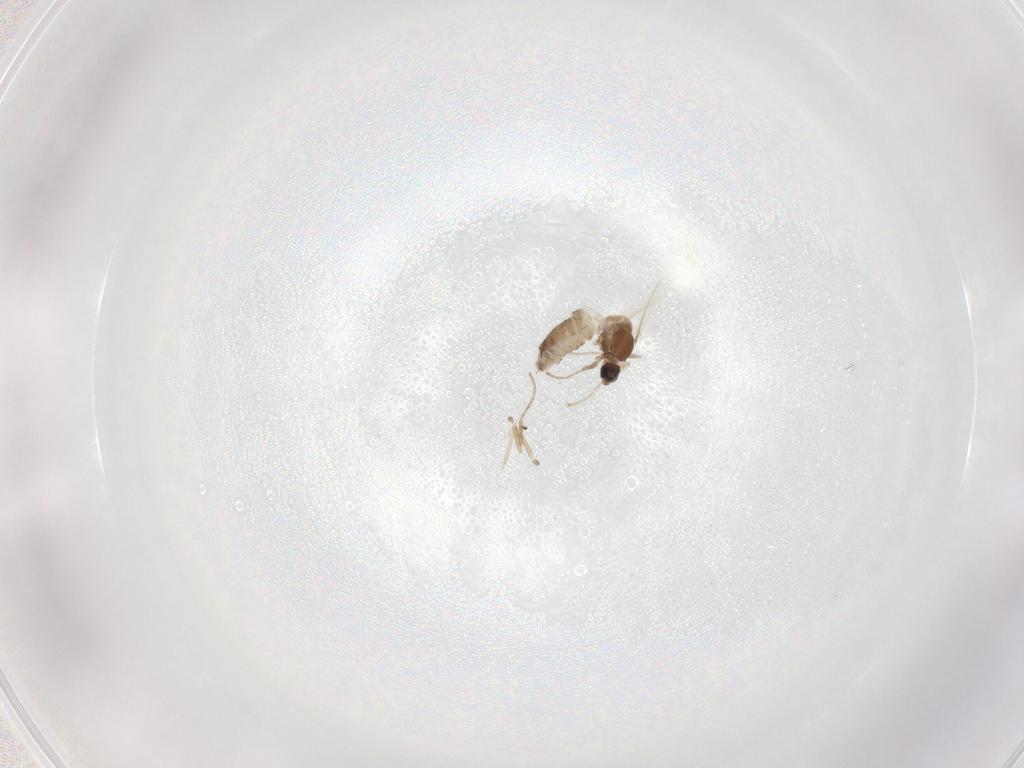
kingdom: Animalia
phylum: Arthropoda
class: Insecta
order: Diptera
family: Cecidomyiidae
